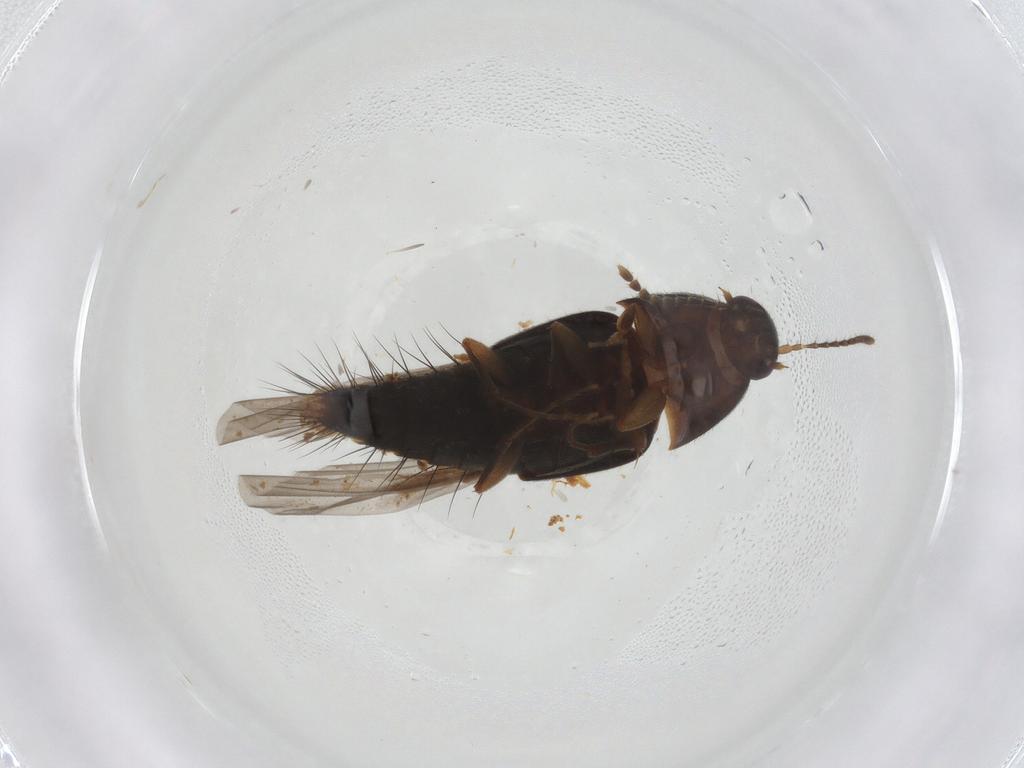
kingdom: Animalia
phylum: Arthropoda
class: Insecta
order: Coleoptera
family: Staphylinidae
